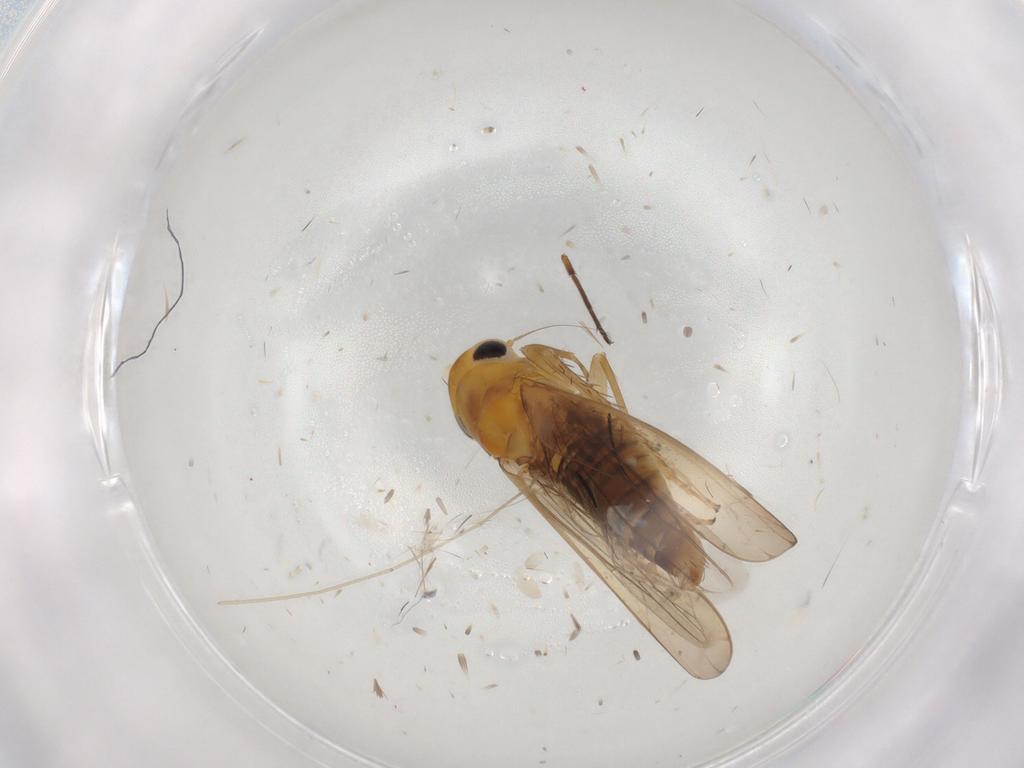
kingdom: Animalia
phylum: Arthropoda
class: Insecta
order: Hemiptera
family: Cicadellidae
